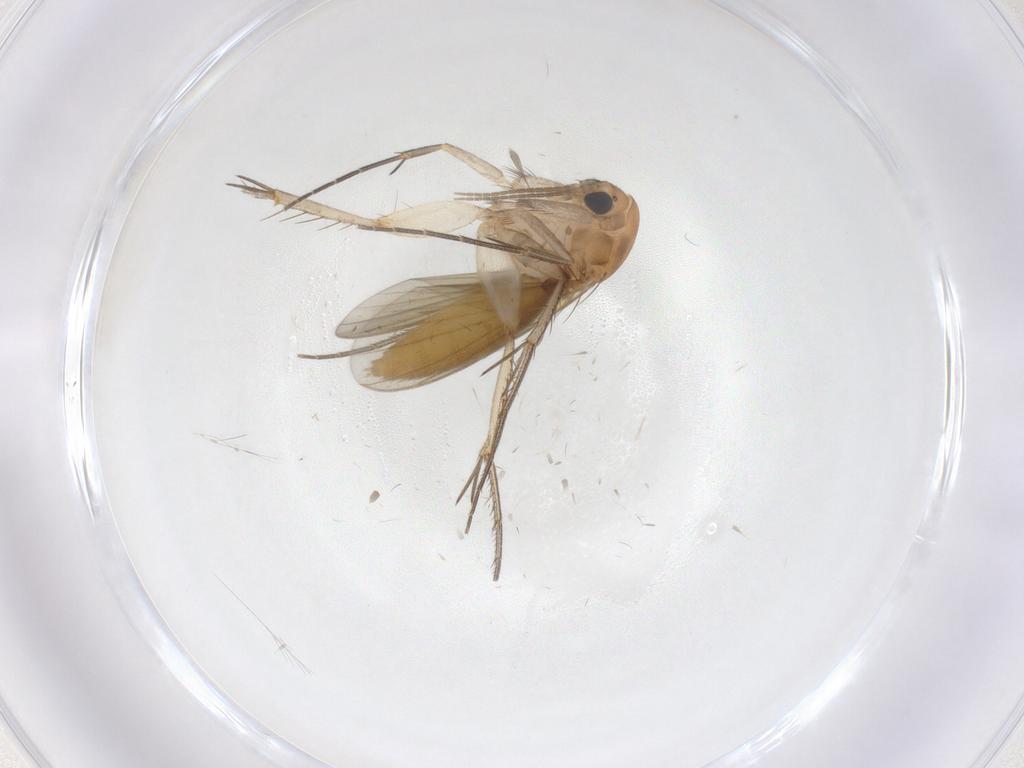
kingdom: Animalia
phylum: Arthropoda
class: Insecta
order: Diptera
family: Mycetophilidae
